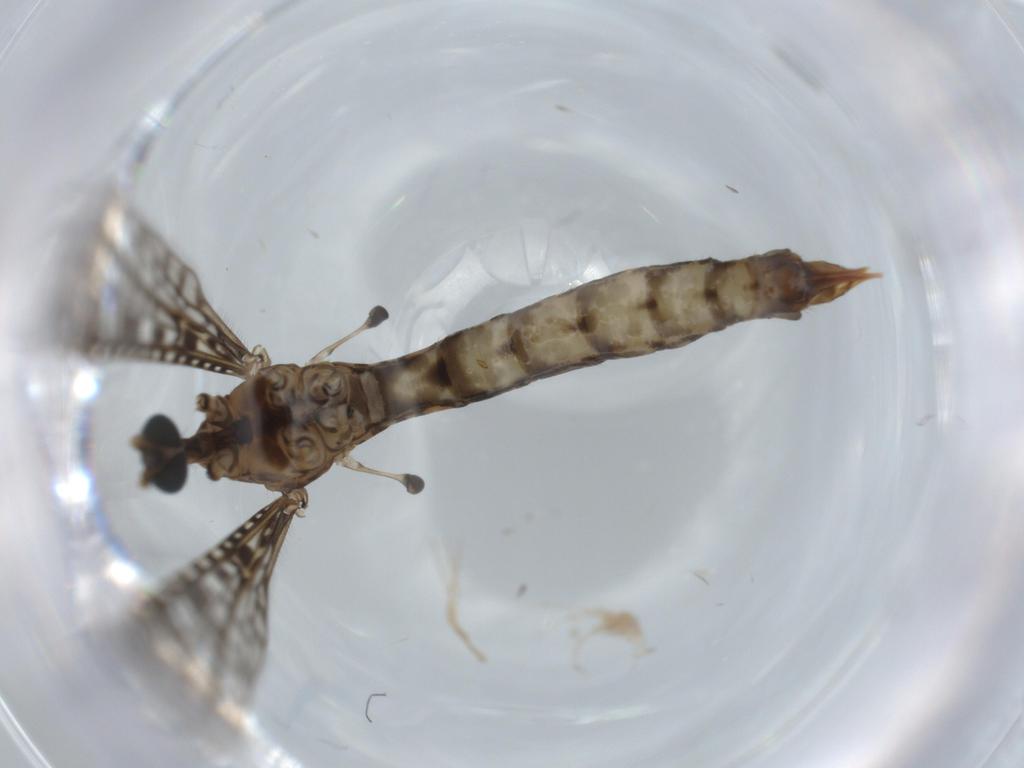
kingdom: Animalia
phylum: Arthropoda
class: Insecta
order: Diptera
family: Limoniidae
